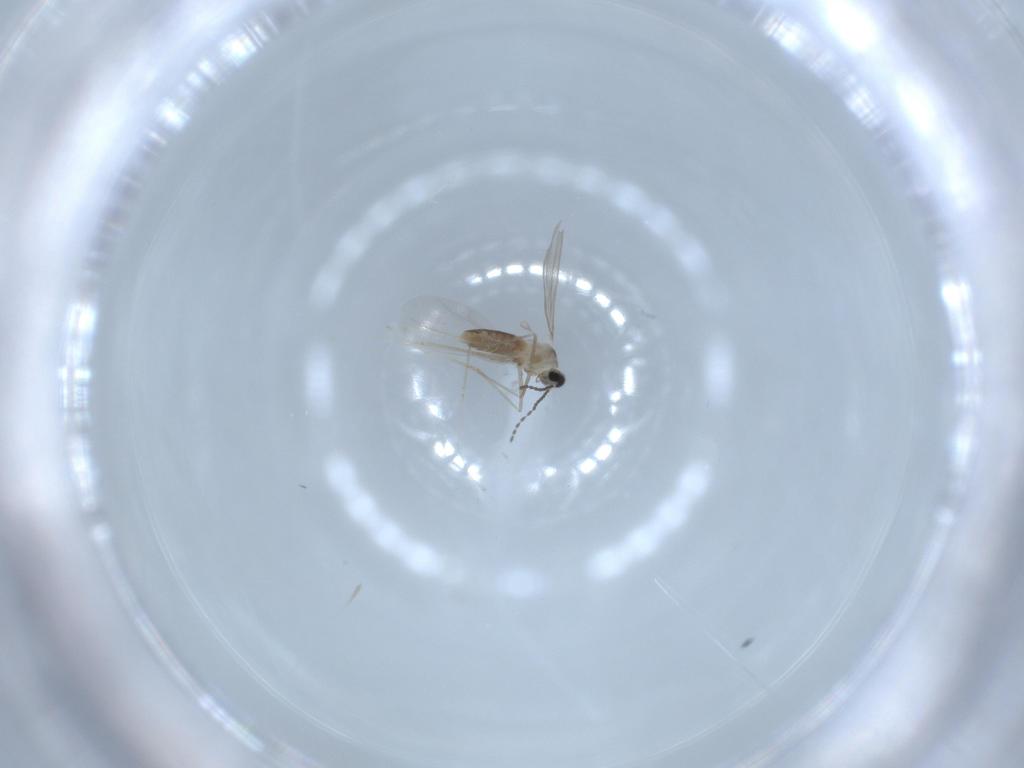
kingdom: Animalia
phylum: Arthropoda
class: Insecta
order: Diptera
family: Cecidomyiidae
